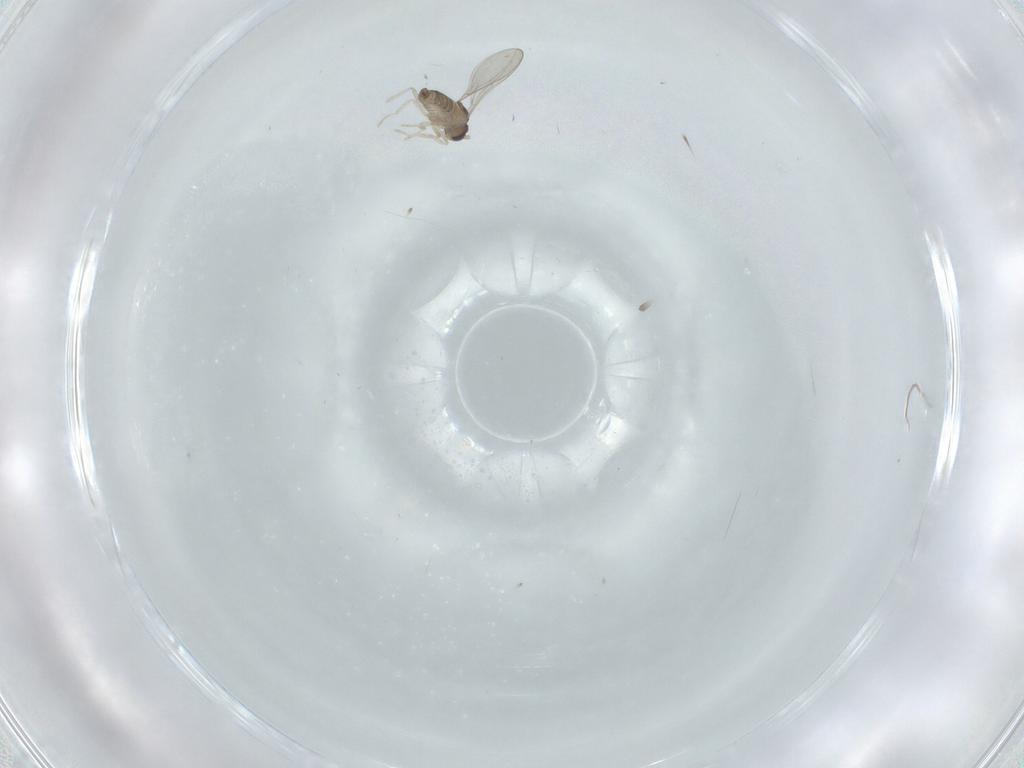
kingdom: Animalia
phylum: Arthropoda
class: Insecta
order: Diptera
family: Cecidomyiidae
